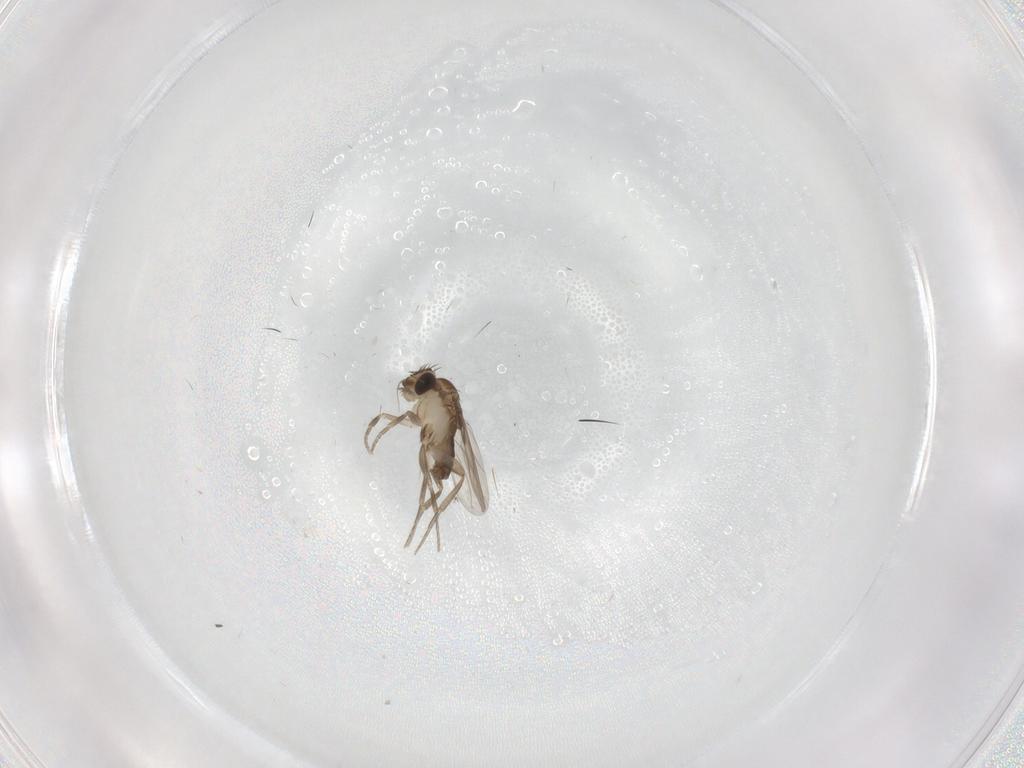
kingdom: Animalia
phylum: Arthropoda
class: Insecta
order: Diptera
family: Phoridae
